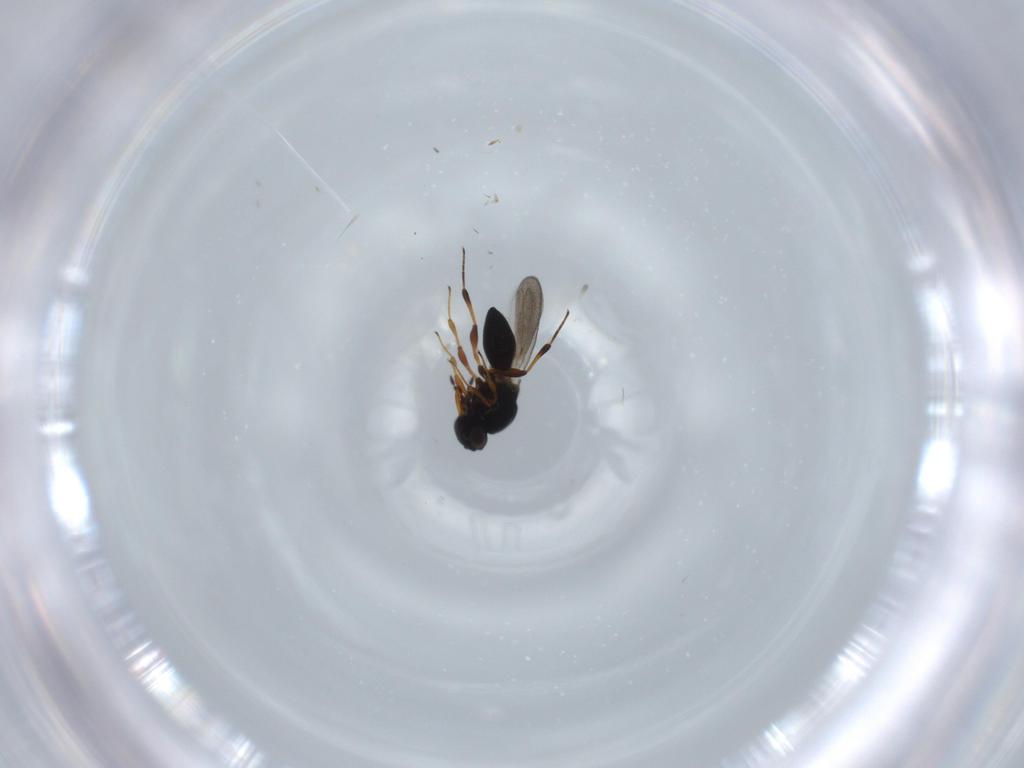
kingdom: Animalia
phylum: Arthropoda
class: Insecta
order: Hymenoptera
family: Platygastridae
